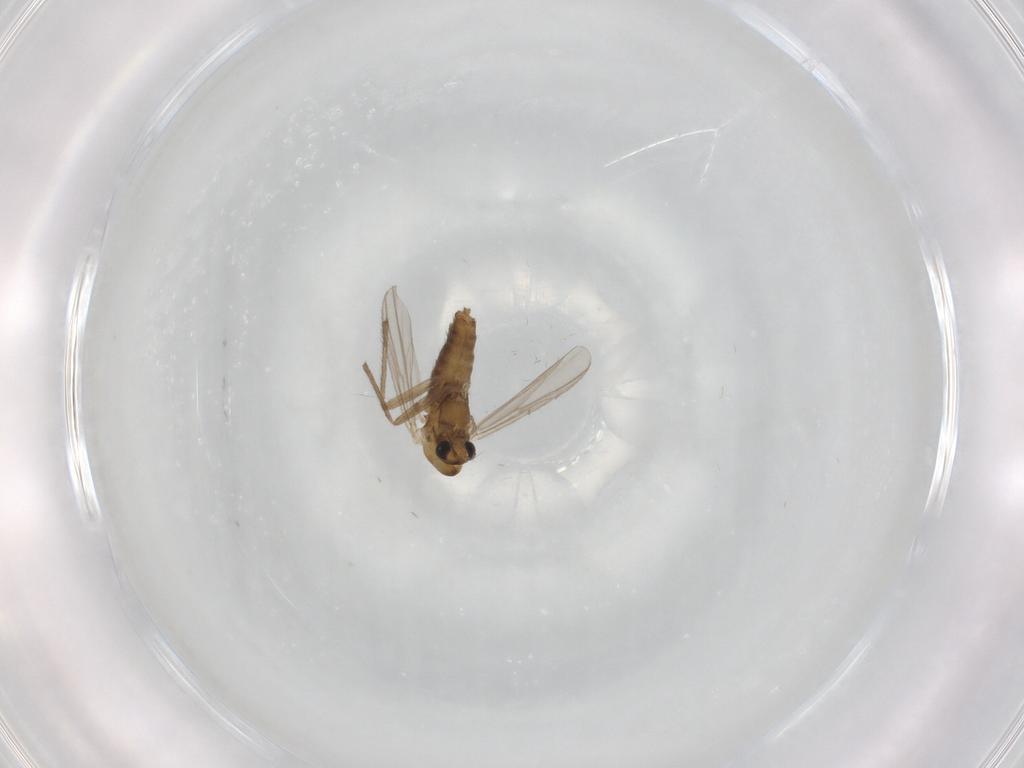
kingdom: Animalia
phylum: Arthropoda
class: Insecta
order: Diptera
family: Chironomidae
